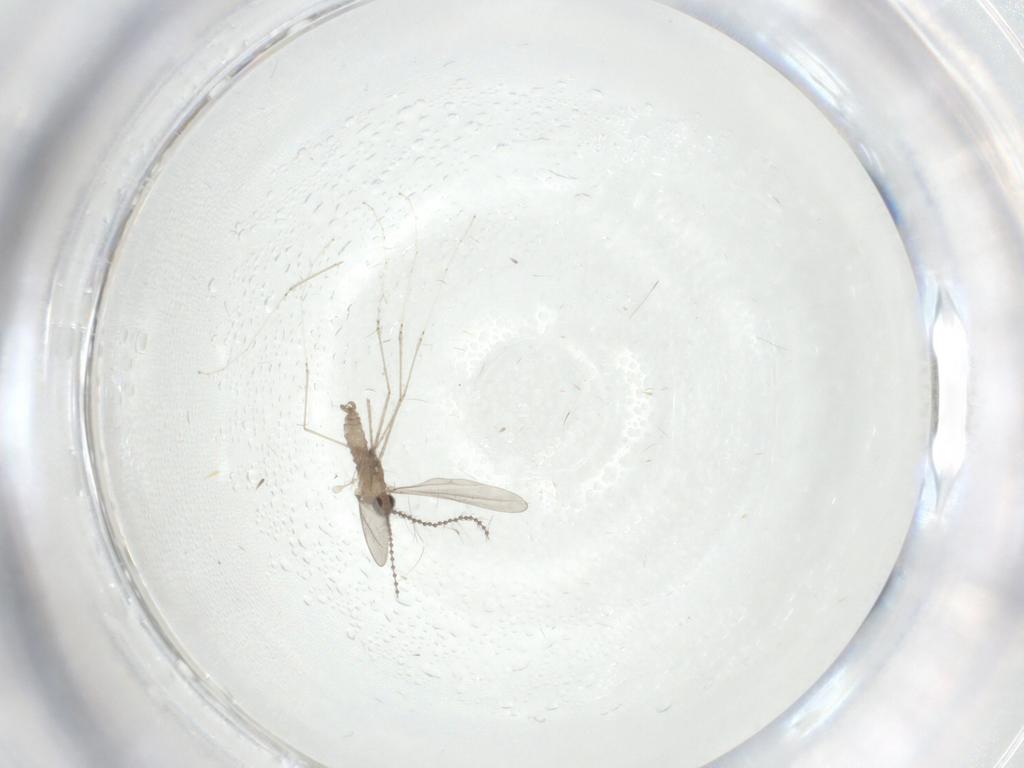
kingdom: Animalia
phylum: Arthropoda
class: Insecta
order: Diptera
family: Cecidomyiidae
